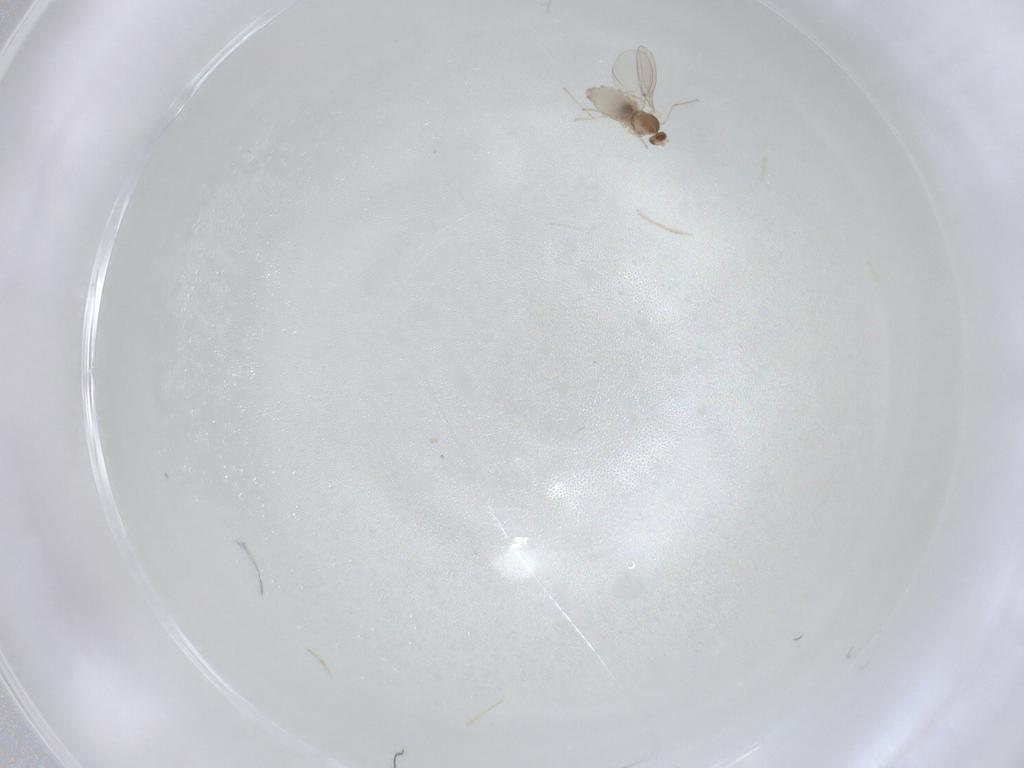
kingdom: Animalia
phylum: Arthropoda
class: Insecta
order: Diptera
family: Cecidomyiidae
